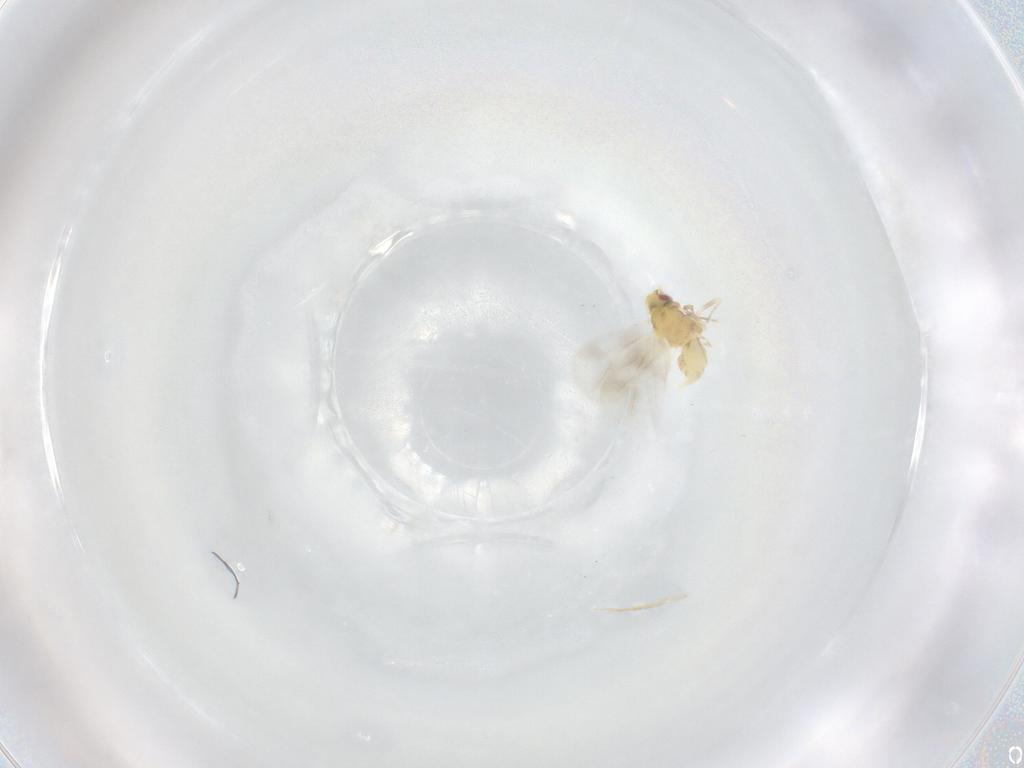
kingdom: Animalia
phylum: Arthropoda
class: Insecta
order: Hemiptera
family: Aleyrodidae
